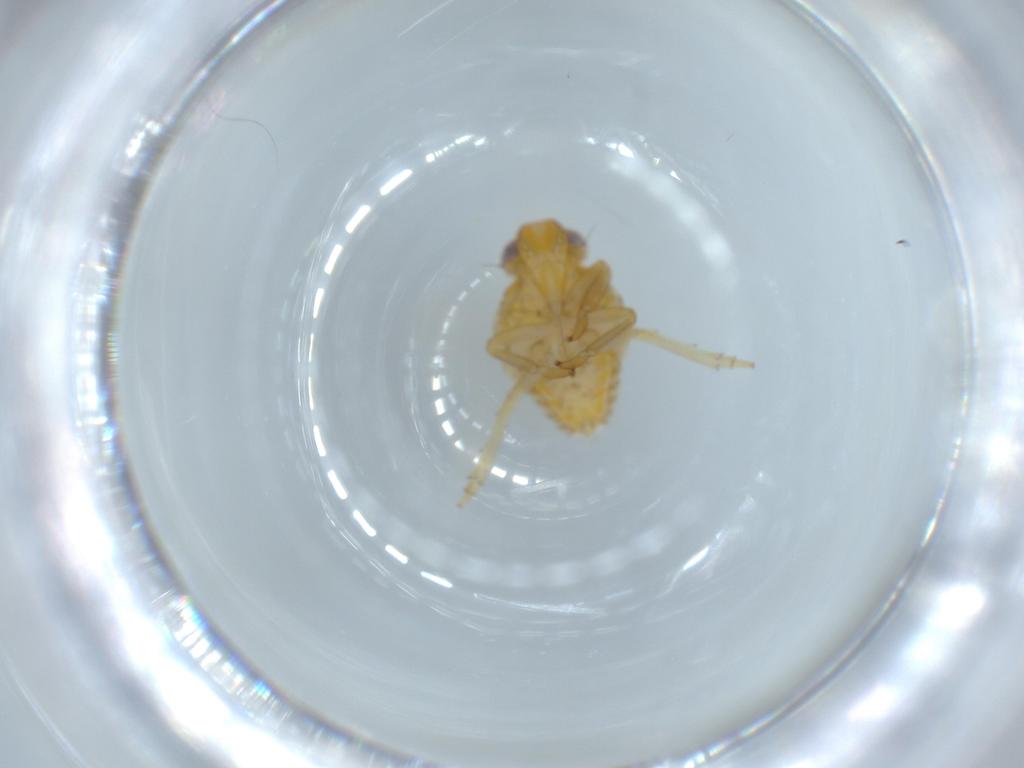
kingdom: Animalia
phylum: Arthropoda
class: Insecta
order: Hemiptera
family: Issidae
